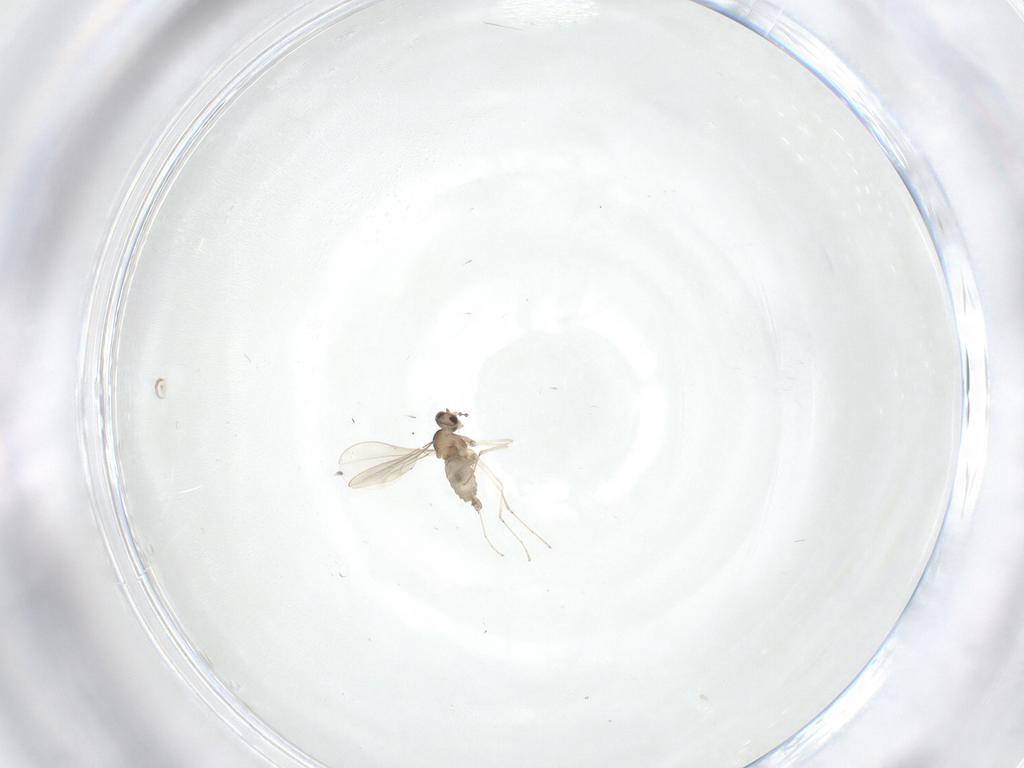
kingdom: Animalia
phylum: Arthropoda
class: Insecta
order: Diptera
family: Cecidomyiidae
